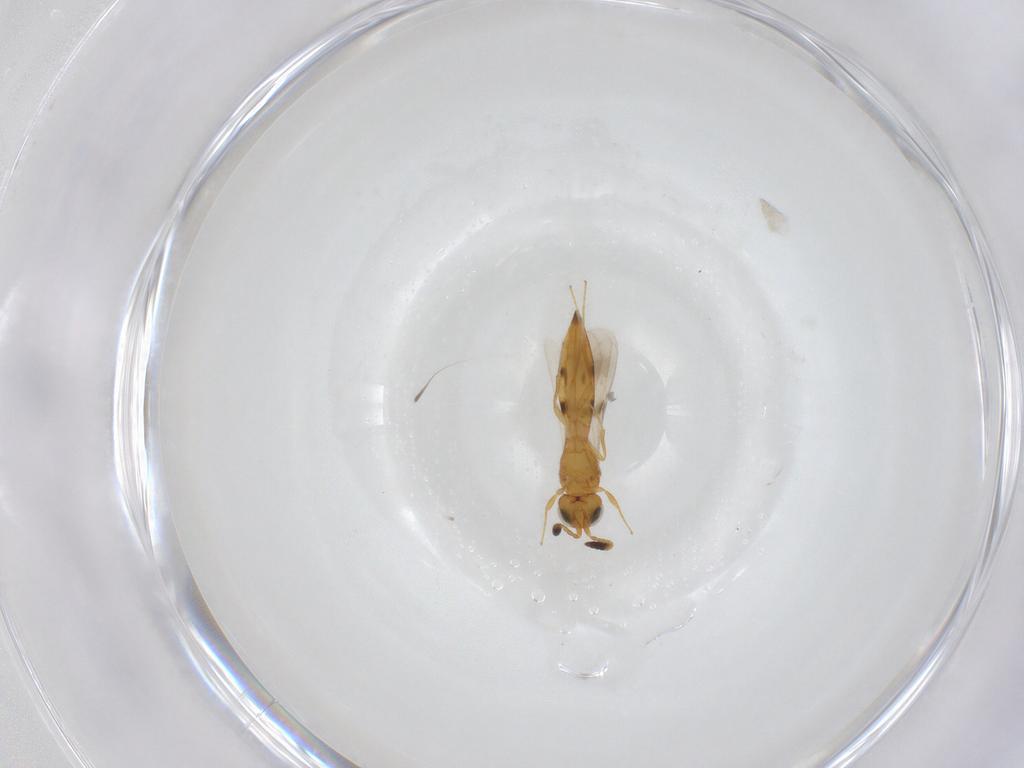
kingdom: Animalia
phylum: Arthropoda
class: Insecta
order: Hymenoptera
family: Scelionidae
